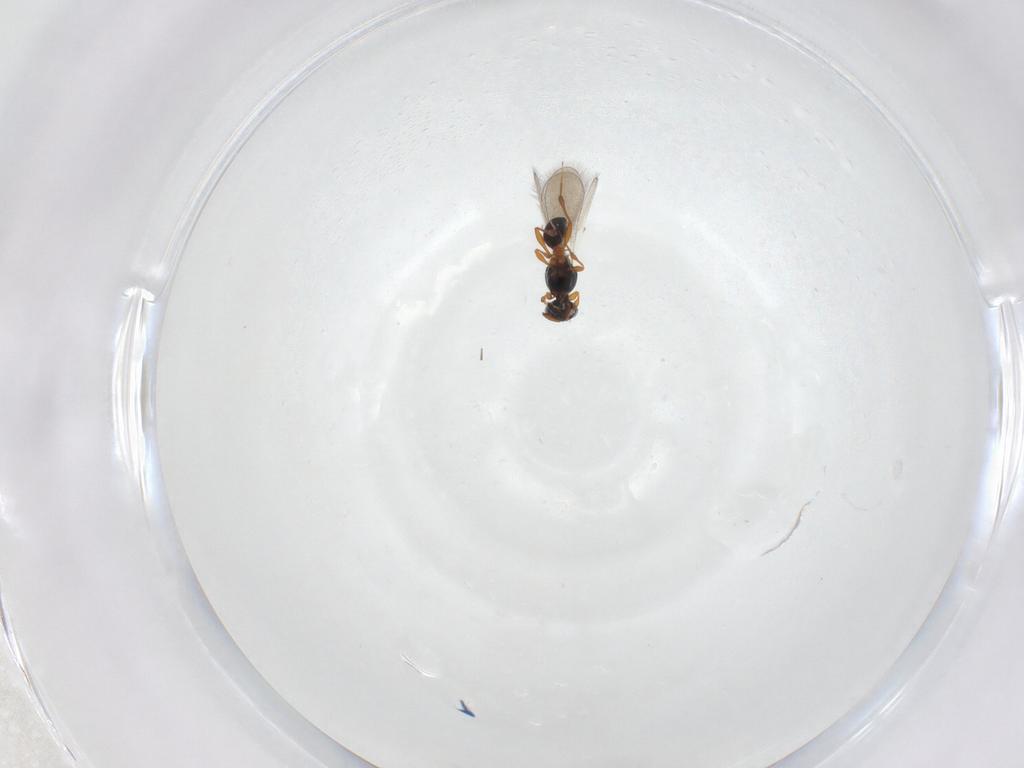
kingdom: Animalia
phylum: Arthropoda
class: Insecta
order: Hymenoptera
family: Platygastridae
